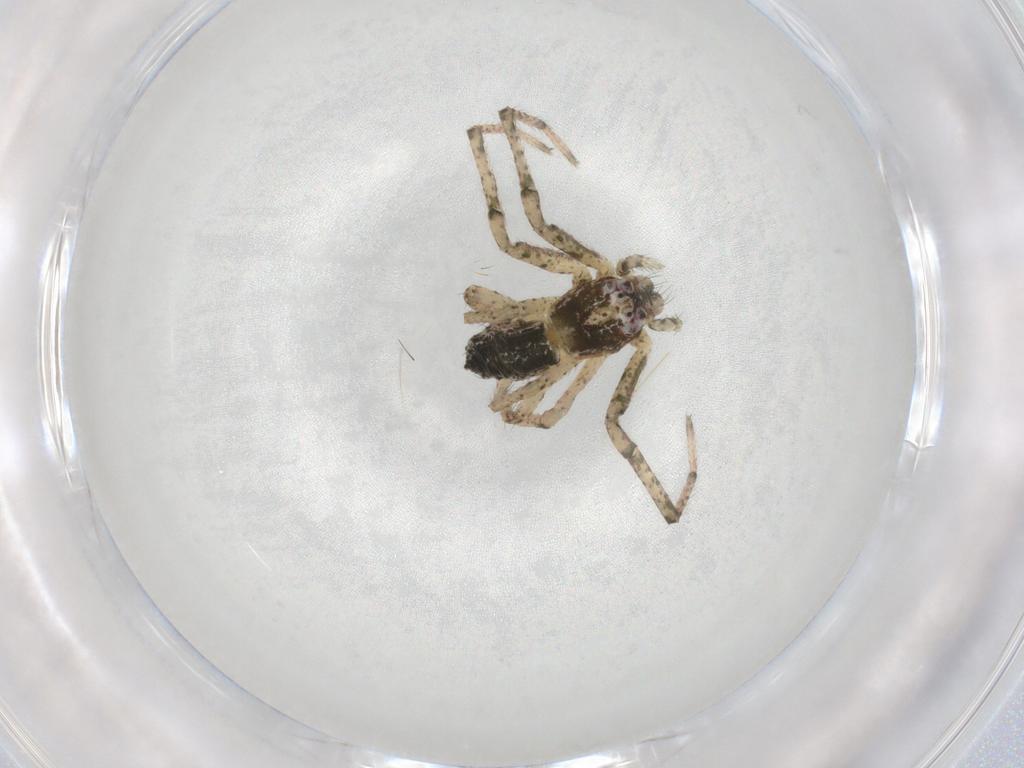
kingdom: Animalia
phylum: Arthropoda
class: Arachnida
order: Araneae
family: Thomisidae
